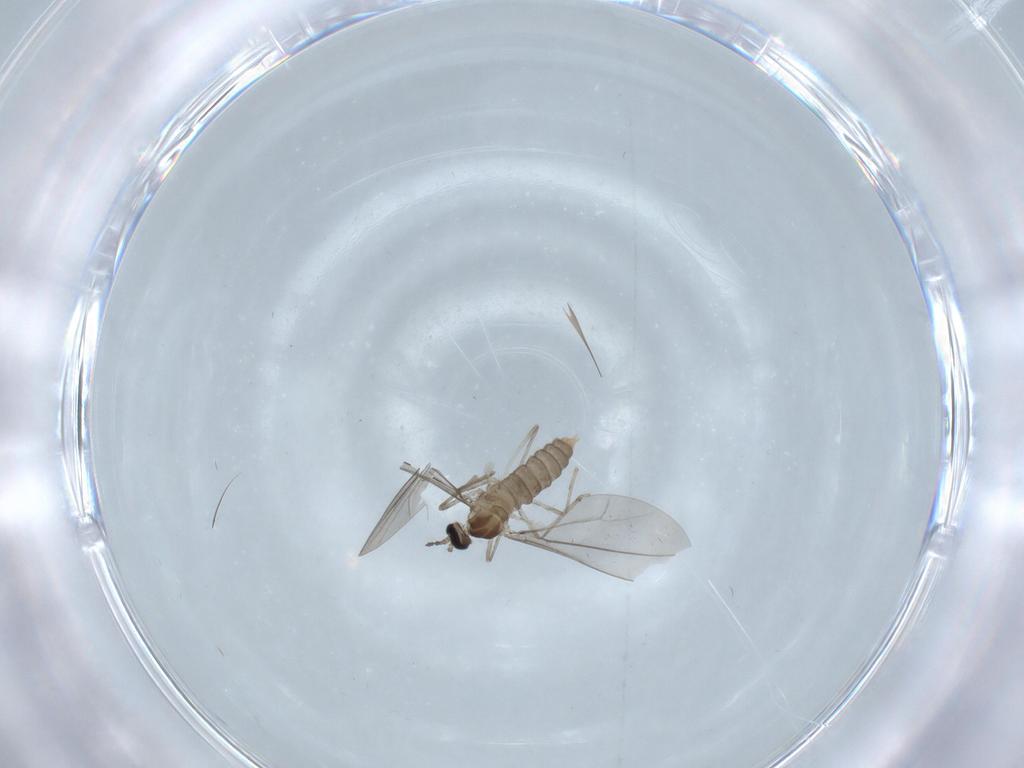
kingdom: Animalia
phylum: Arthropoda
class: Insecta
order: Diptera
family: Cecidomyiidae
